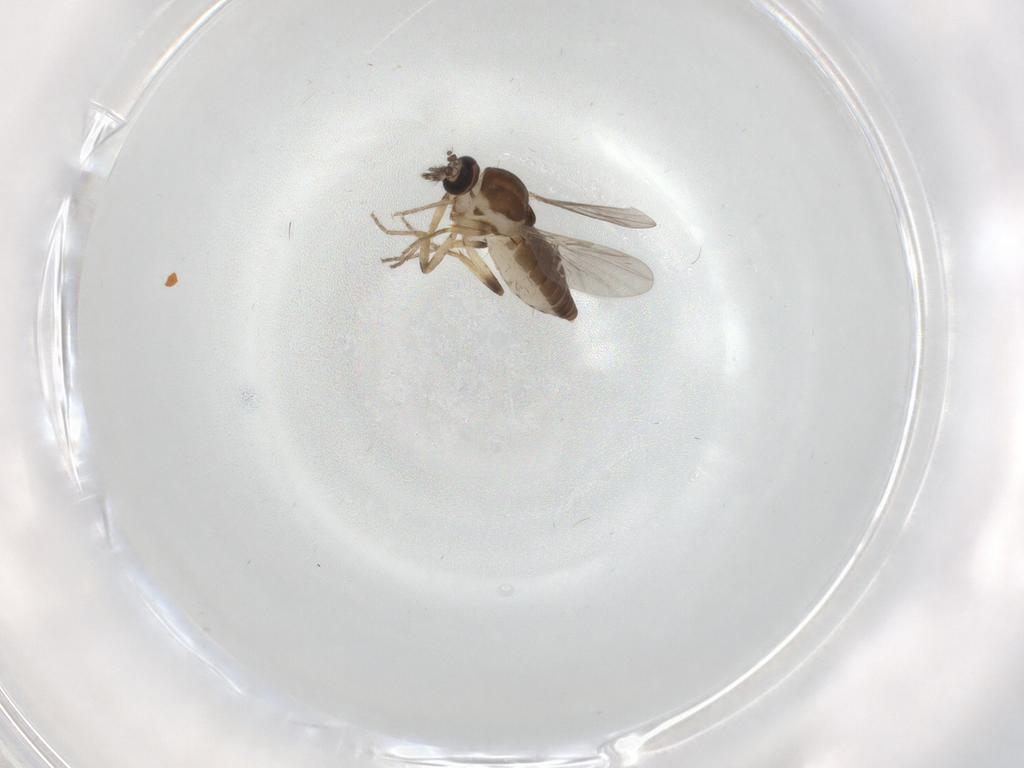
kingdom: Animalia
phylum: Arthropoda
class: Insecta
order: Diptera
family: Ceratopogonidae
